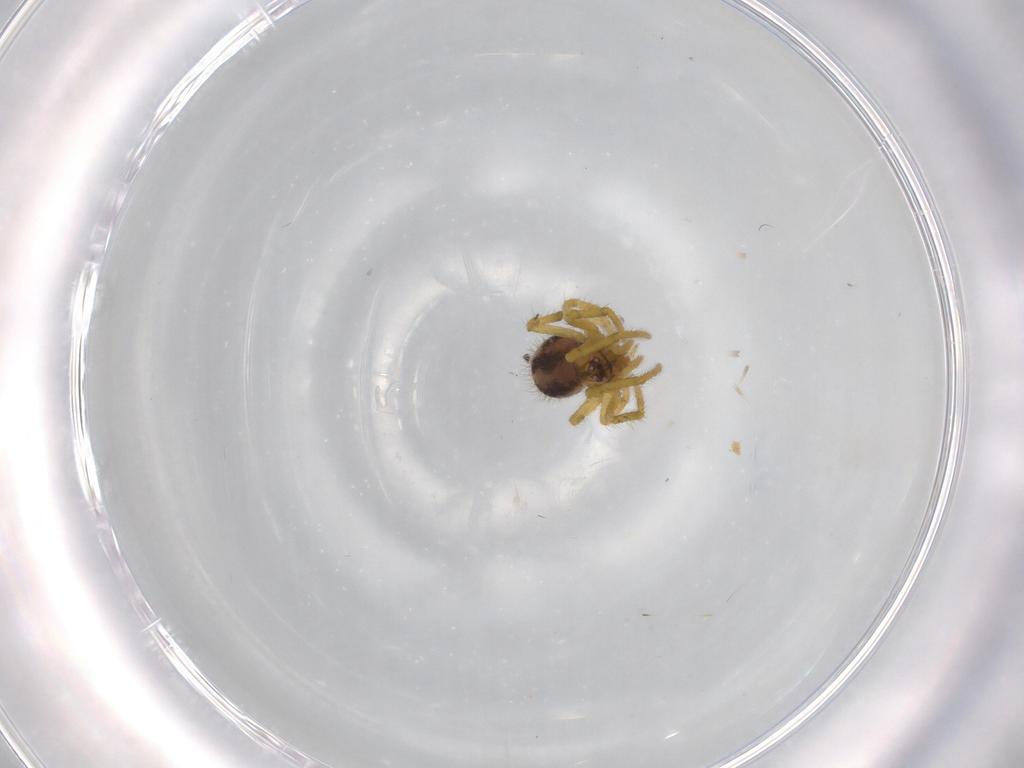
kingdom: Animalia
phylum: Arthropoda
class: Arachnida
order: Araneae
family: Theridiidae
